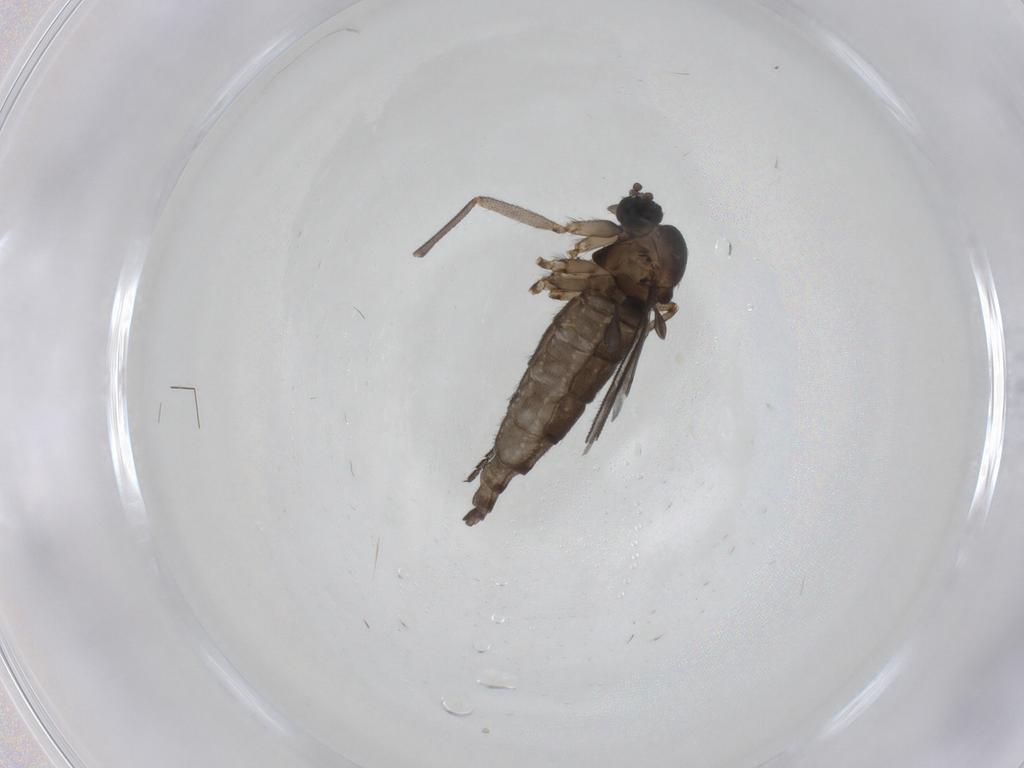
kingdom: Animalia
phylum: Arthropoda
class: Insecta
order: Diptera
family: Sciaridae
